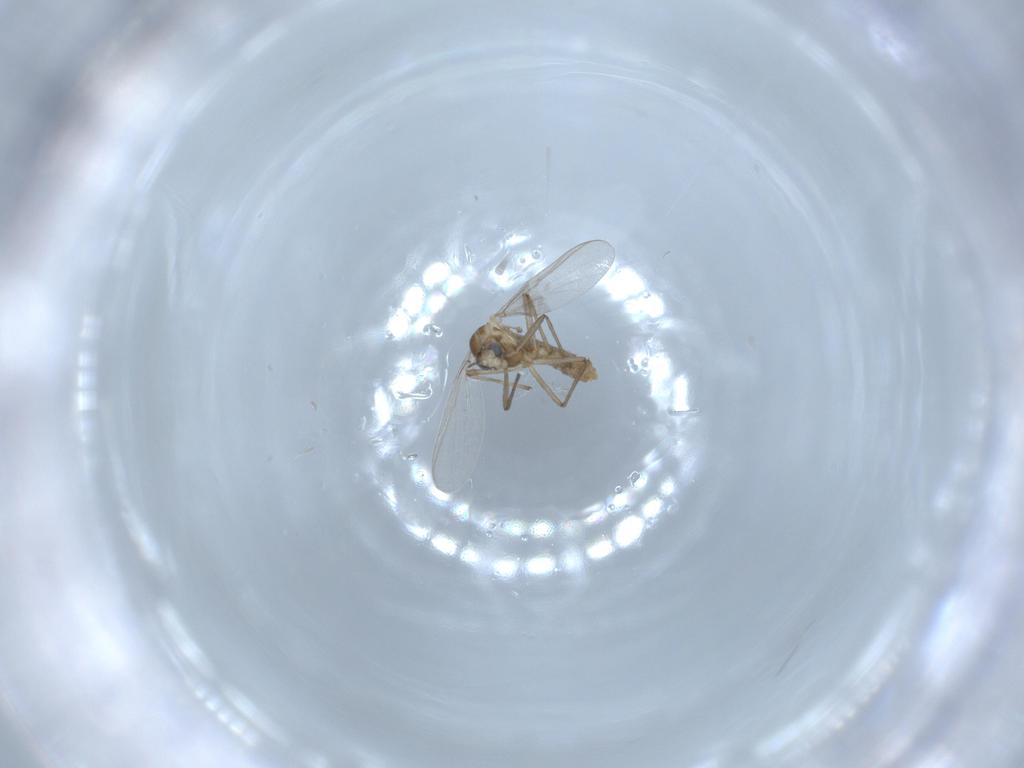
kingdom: Animalia
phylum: Arthropoda
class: Insecta
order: Diptera
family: Chironomidae
